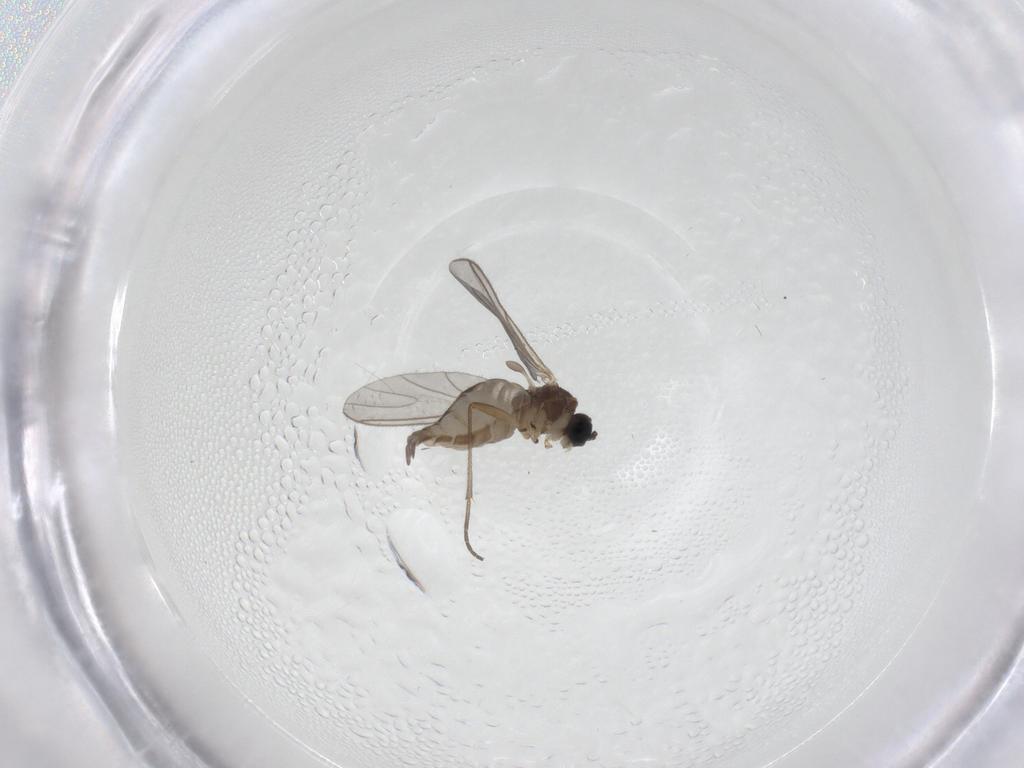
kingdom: Animalia
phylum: Arthropoda
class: Insecta
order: Diptera
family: Sciaridae
